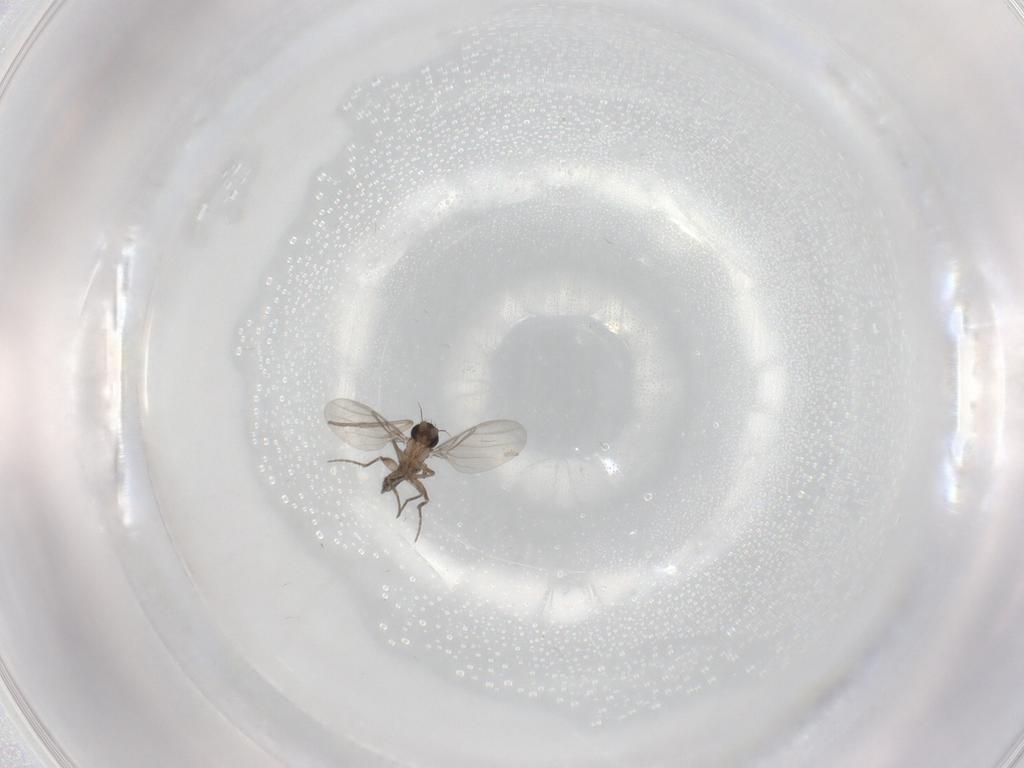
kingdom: Animalia
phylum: Arthropoda
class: Insecta
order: Diptera
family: Psychodidae
